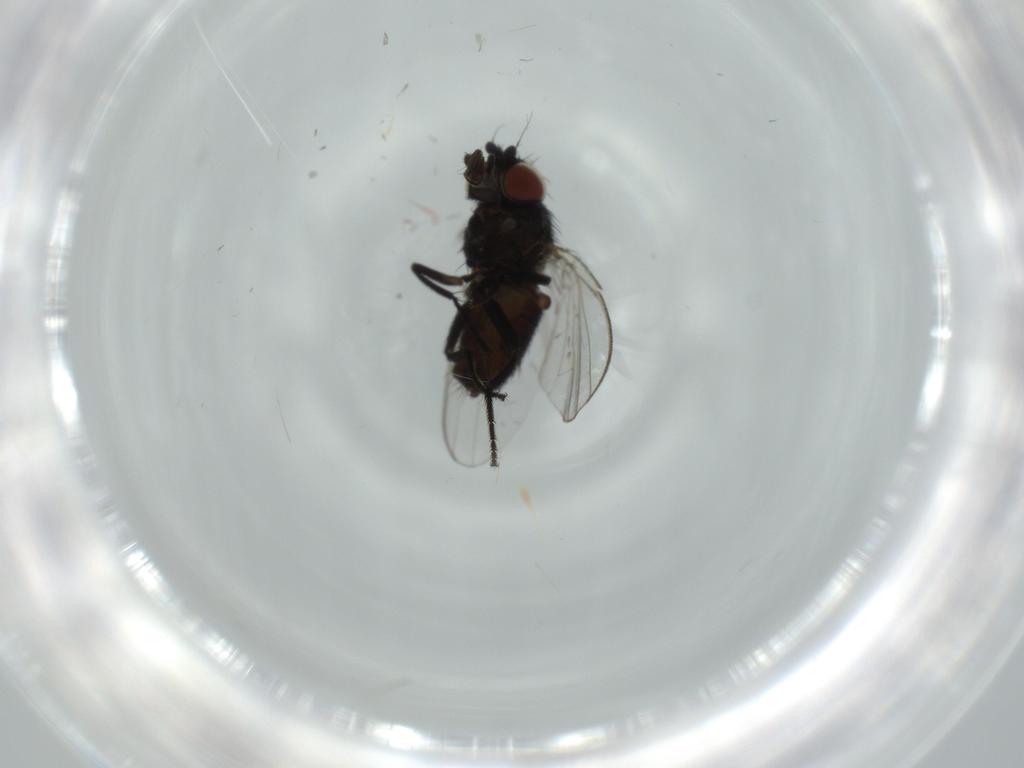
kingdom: Animalia
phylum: Arthropoda
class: Insecta
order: Diptera
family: Milichiidae
